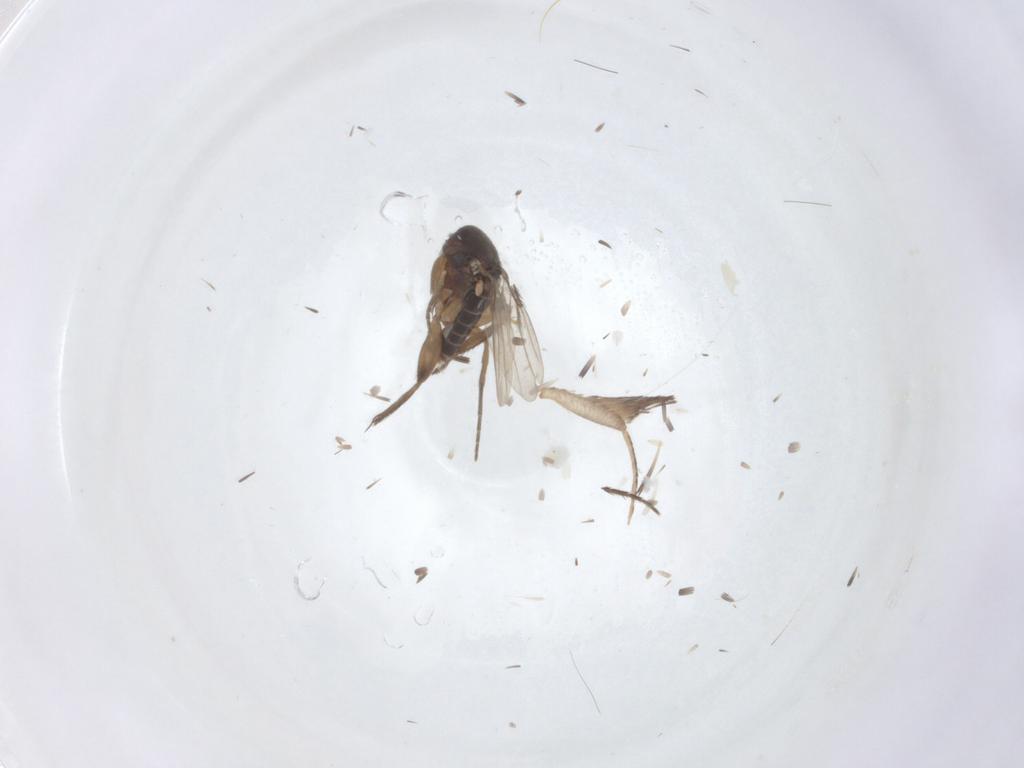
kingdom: Animalia
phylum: Arthropoda
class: Insecta
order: Diptera
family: Phoridae
